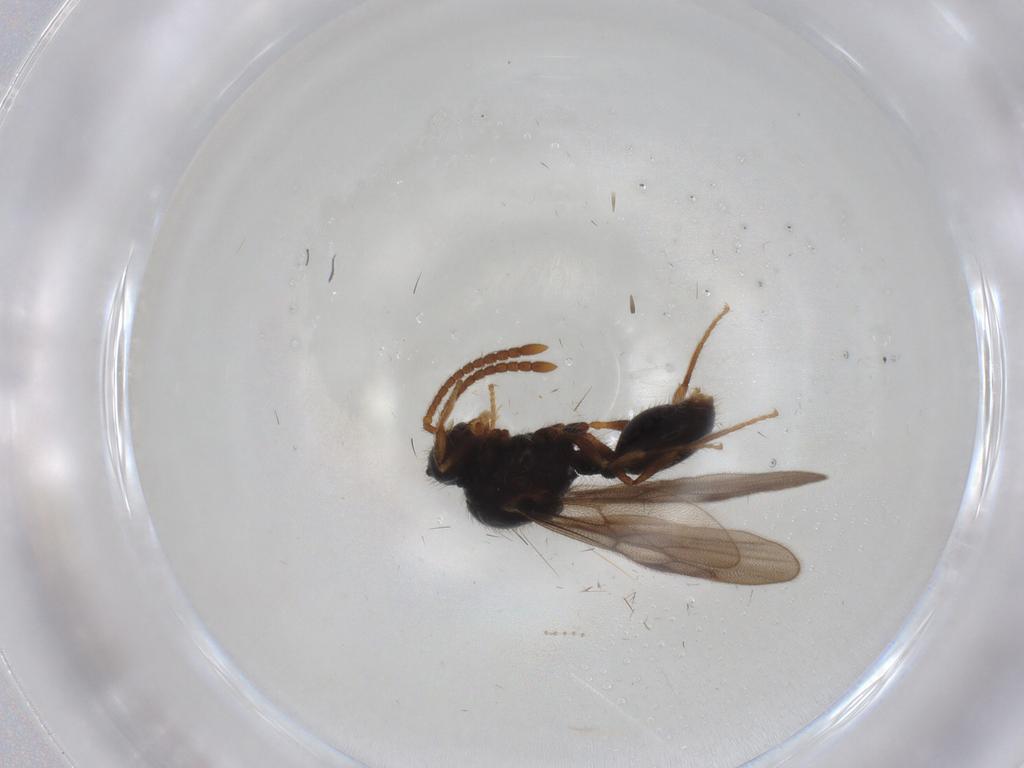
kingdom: Animalia
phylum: Arthropoda
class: Insecta
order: Hymenoptera
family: Formicidae
